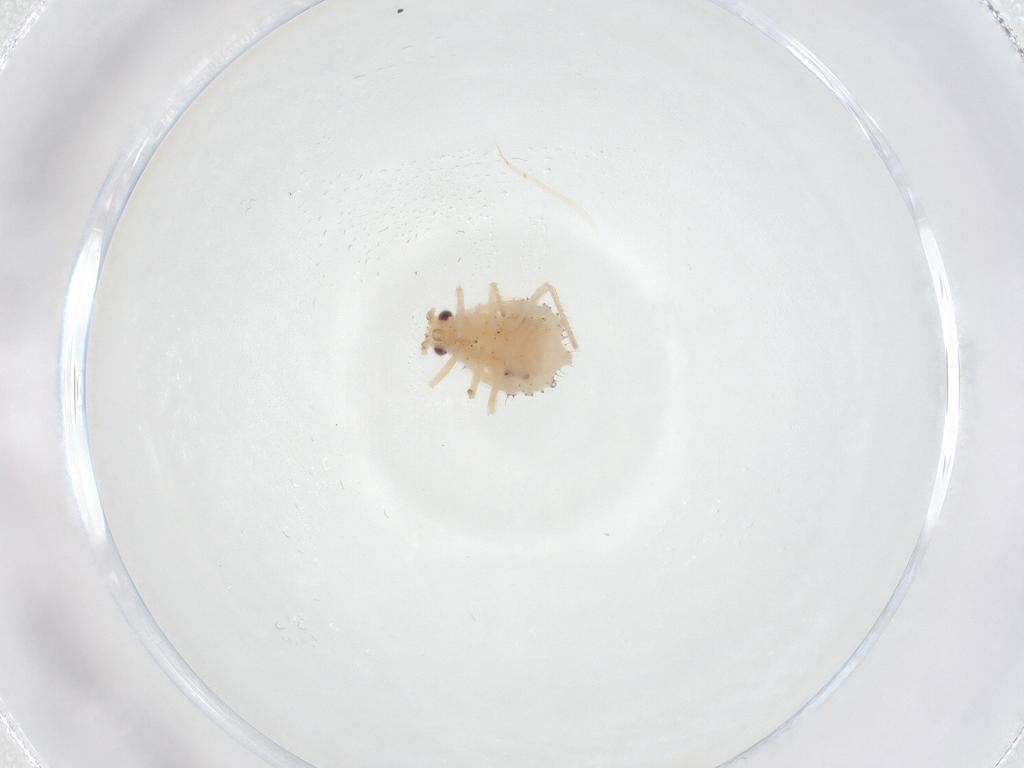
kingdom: Animalia
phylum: Arthropoda
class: Insecta
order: Hemiptera
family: Aphididae
